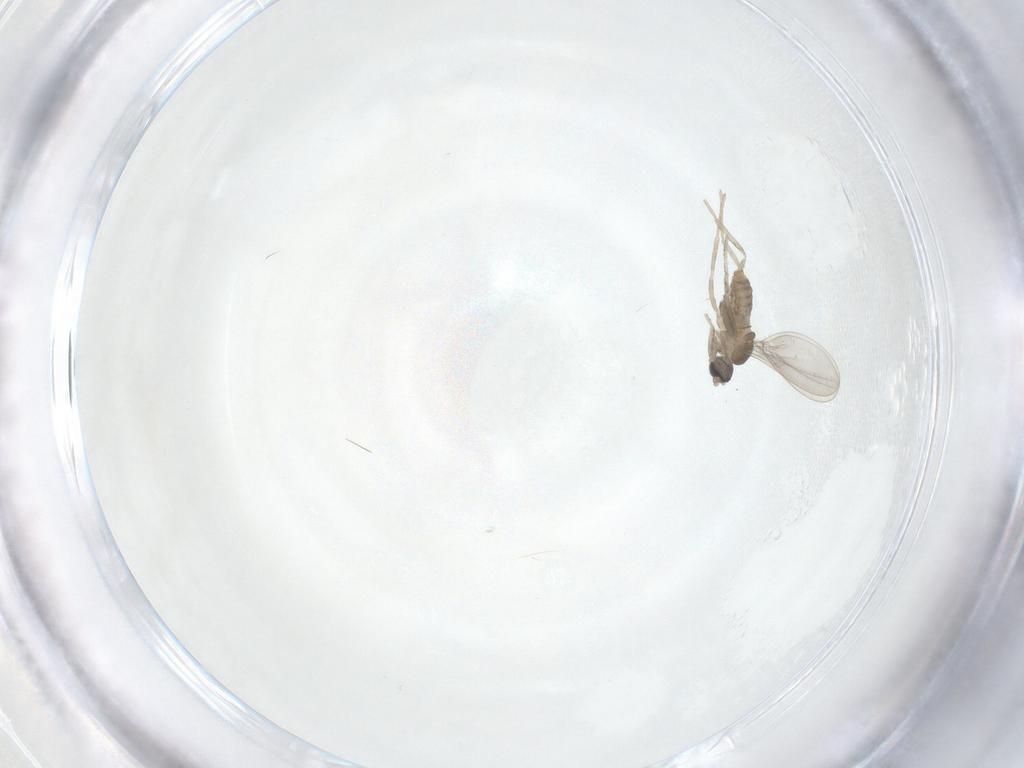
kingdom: Animalia
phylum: Arthropoda
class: Insecta
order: Diptera
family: Cecidomyiidae
